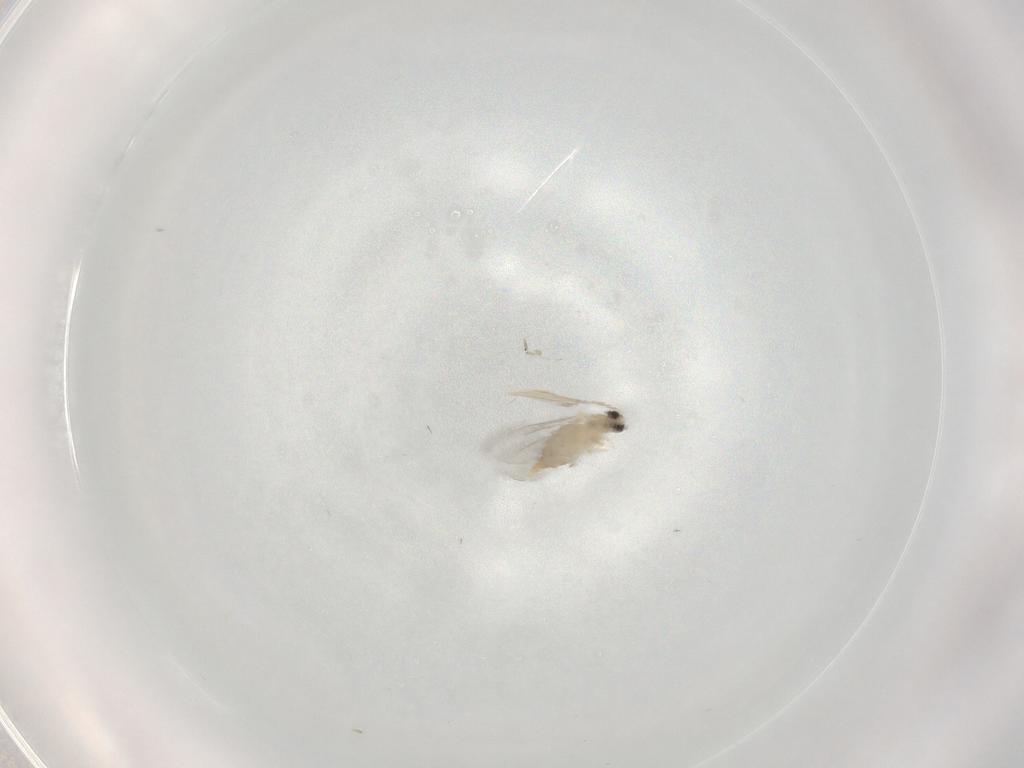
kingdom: Animalia
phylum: Arthropoda
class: Insecta
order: Diptera
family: Cecidomyiidae
